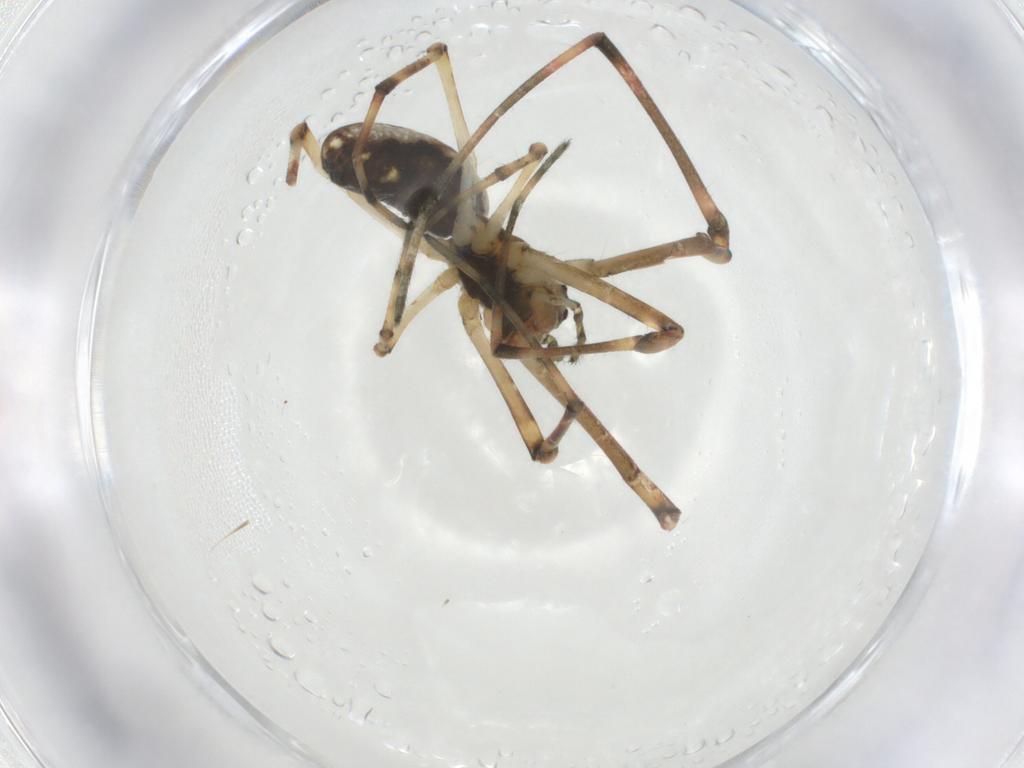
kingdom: Animalia
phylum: Arthropoda
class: Arachnida
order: Araneae
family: Tetragnathidae
